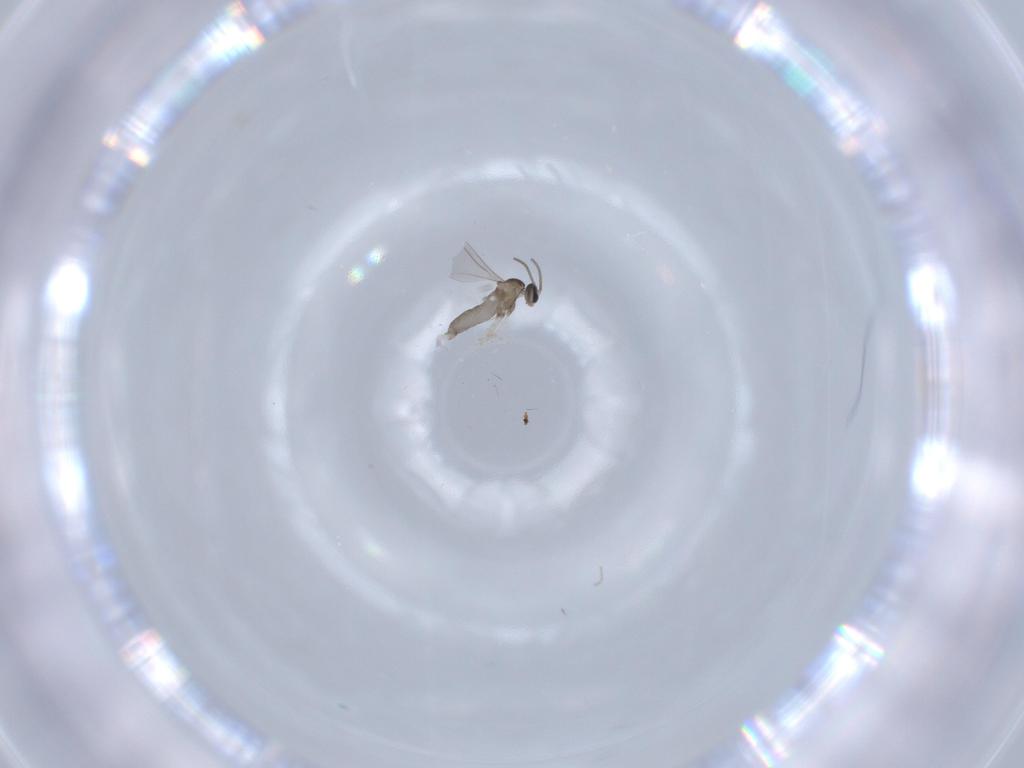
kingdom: Animalia
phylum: Arthropoda
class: Insecta
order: Diptera
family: Cecidomyiidae
